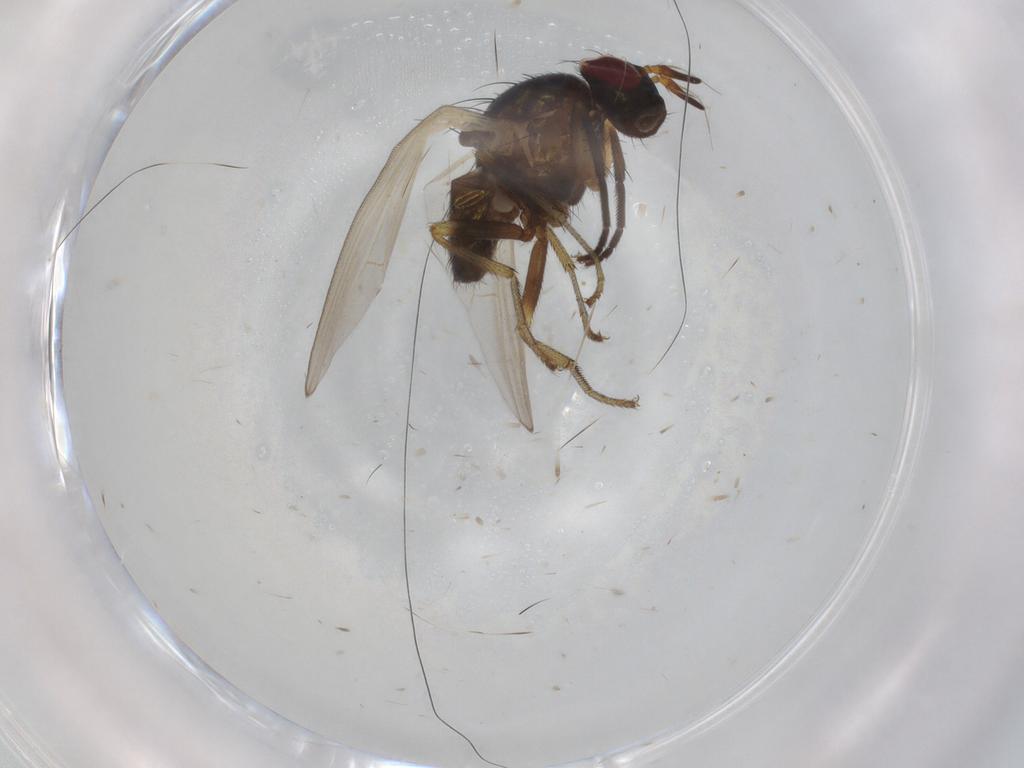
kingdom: Animalia
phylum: Arthropoda
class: Insecta
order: Diptera
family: Lauxaniidae
